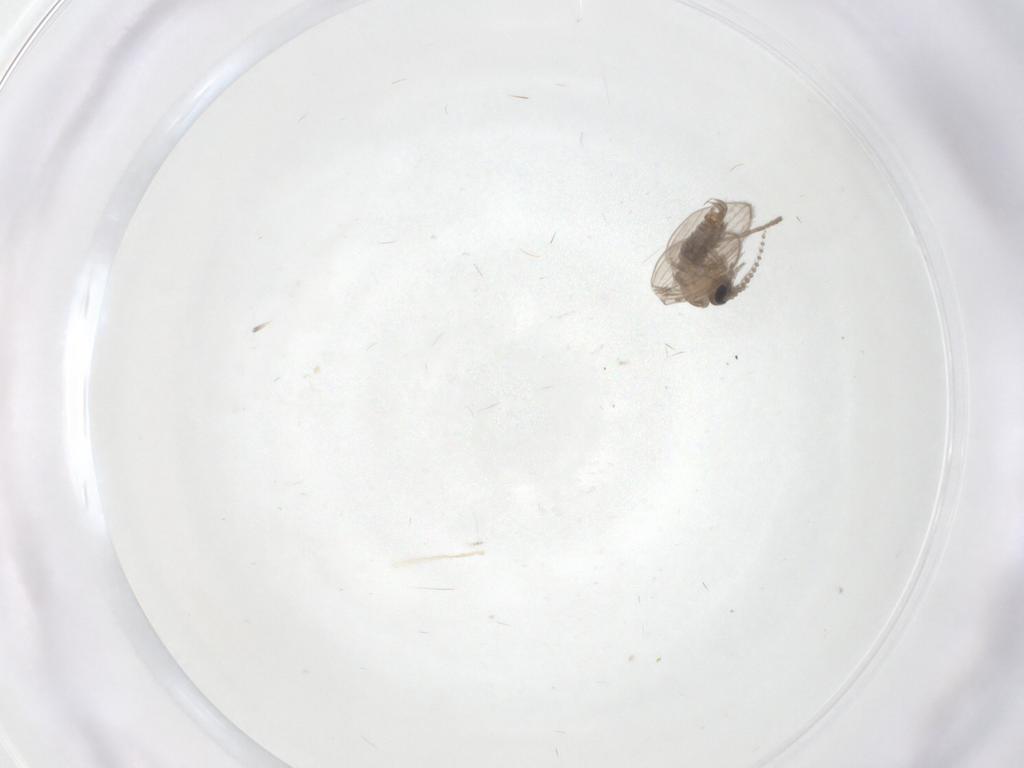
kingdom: Animalia
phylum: Arthropoda
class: Insecta
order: Diptera
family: Psychodidae
